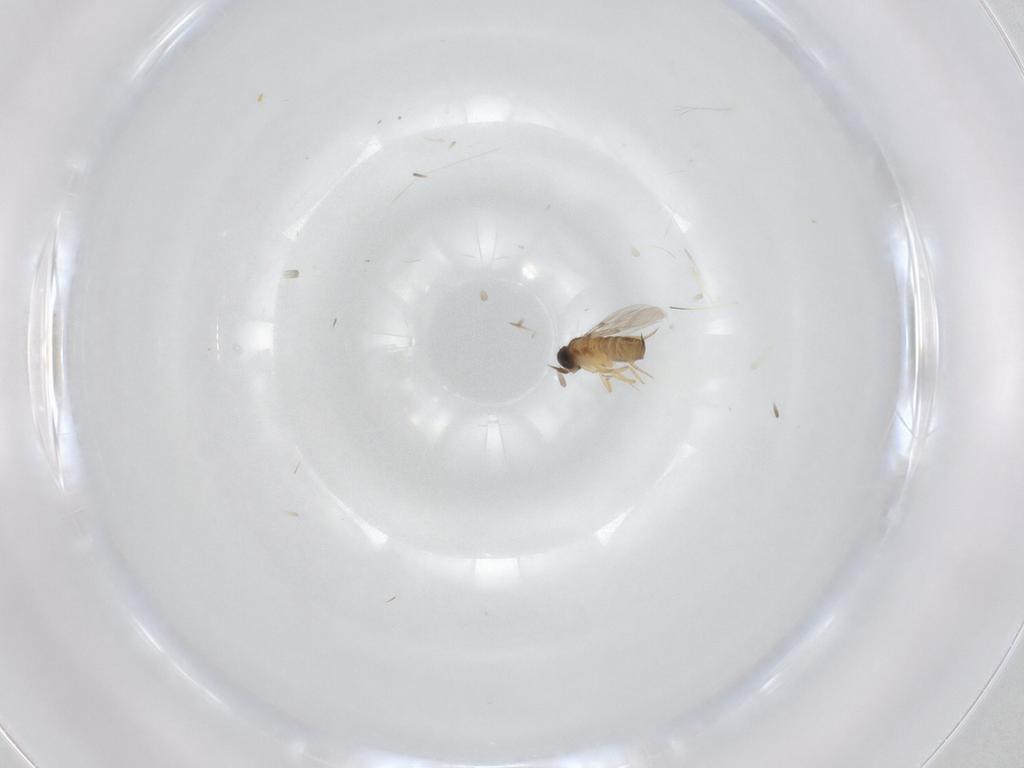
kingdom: Animalia
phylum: Arthropoda
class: Insecta
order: Diptera
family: Phoridae
